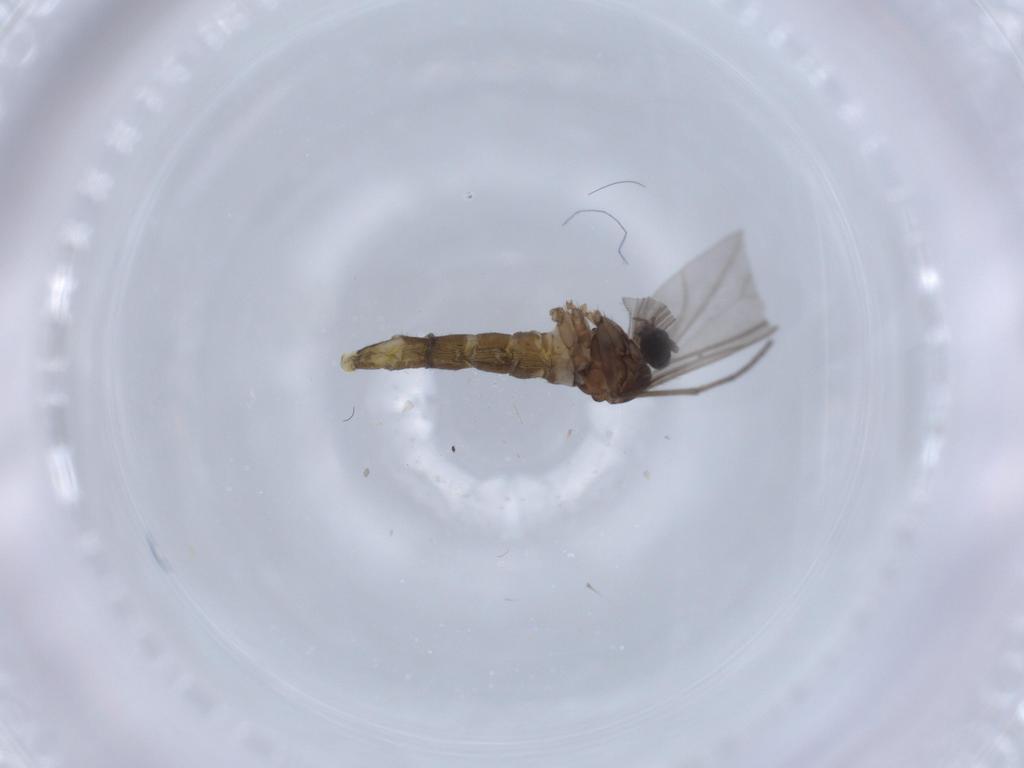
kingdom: Animalia
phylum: Arthropoda
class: Insecta
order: Diptera
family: Sciaridae
